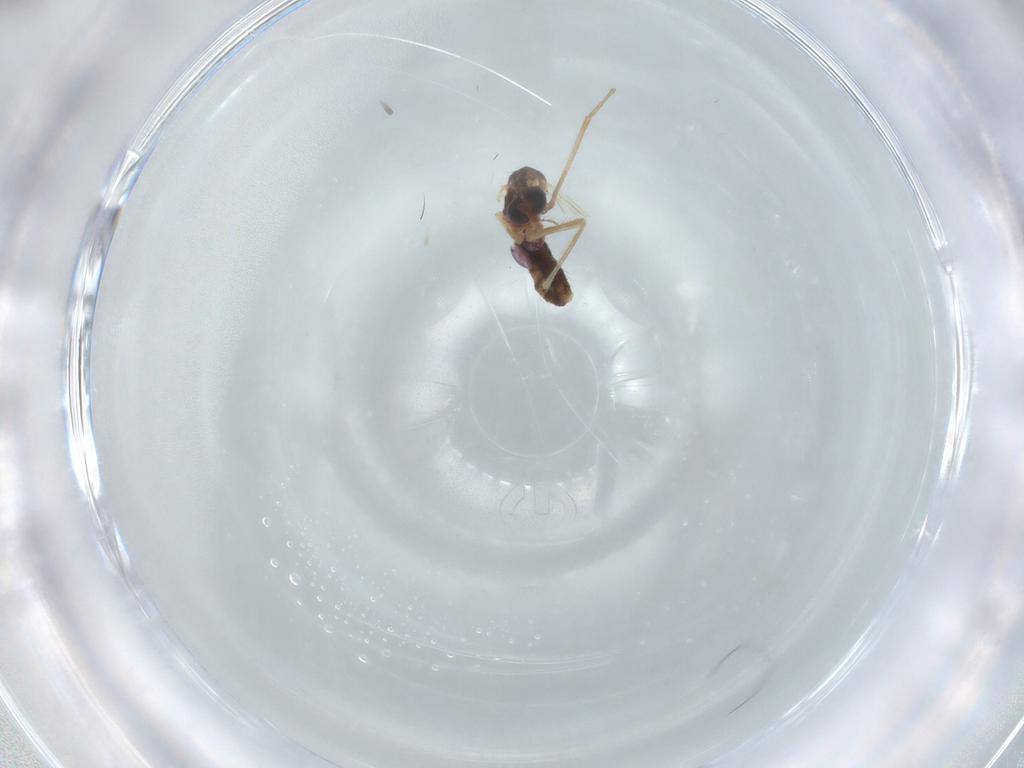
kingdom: Animalia
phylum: Arthropoda
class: Insecta
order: Diptera
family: Chironomidae
